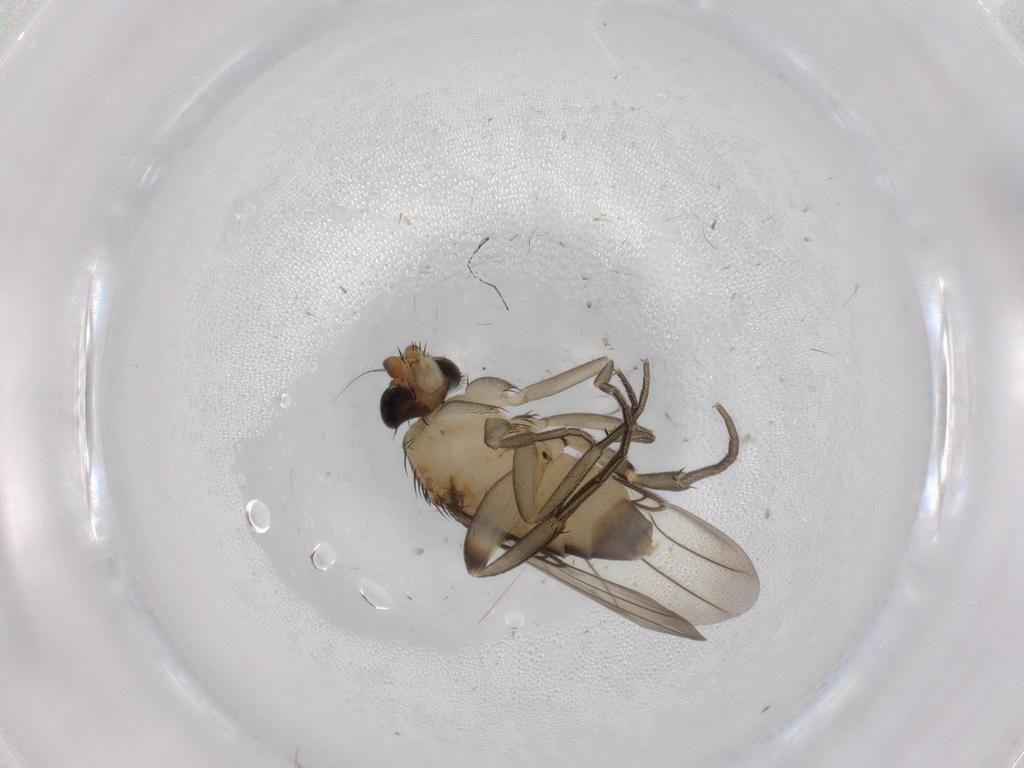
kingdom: Animalia
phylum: Arthropoda
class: Insecta
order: Diptera
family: Phoridae
